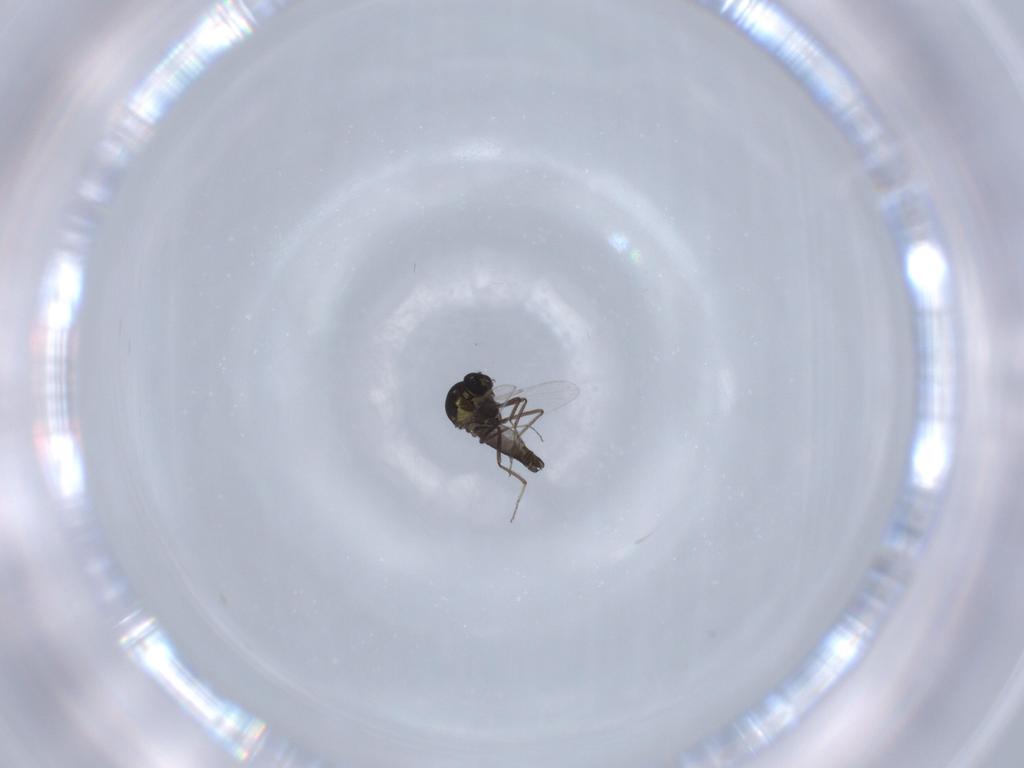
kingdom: Animalia
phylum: Arthropoda
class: Insecta
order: Diptera
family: Ceratopogonidae
